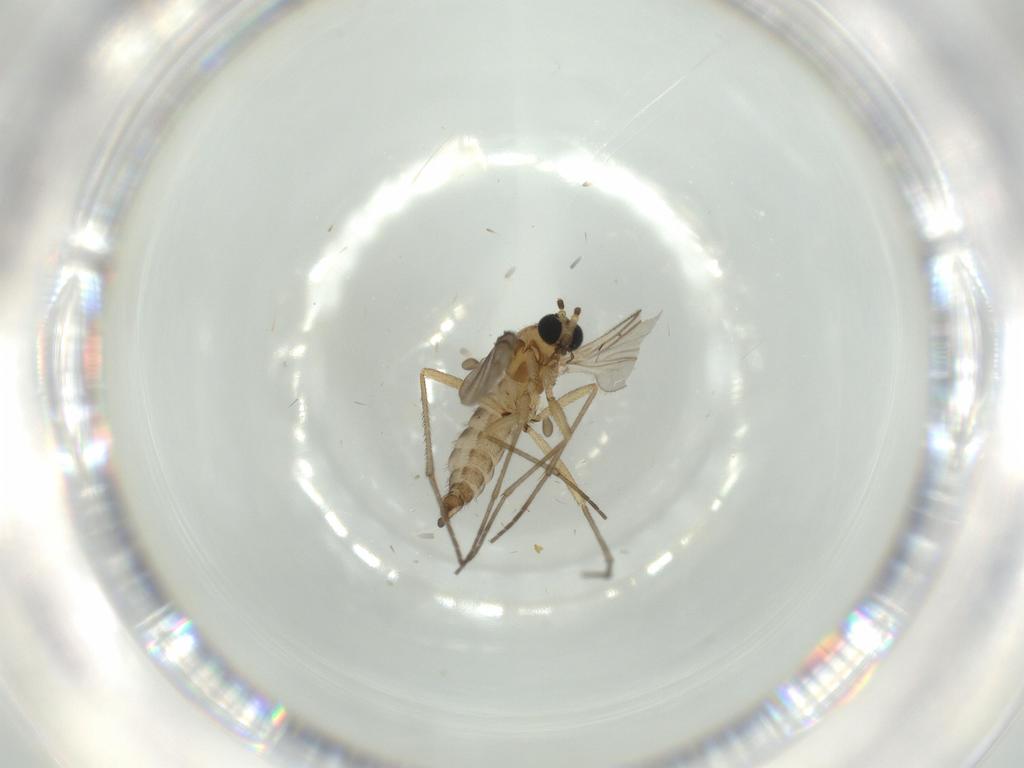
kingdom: Animalia
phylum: Arthropoda
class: Insecta
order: Diptera
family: Sciaridae
